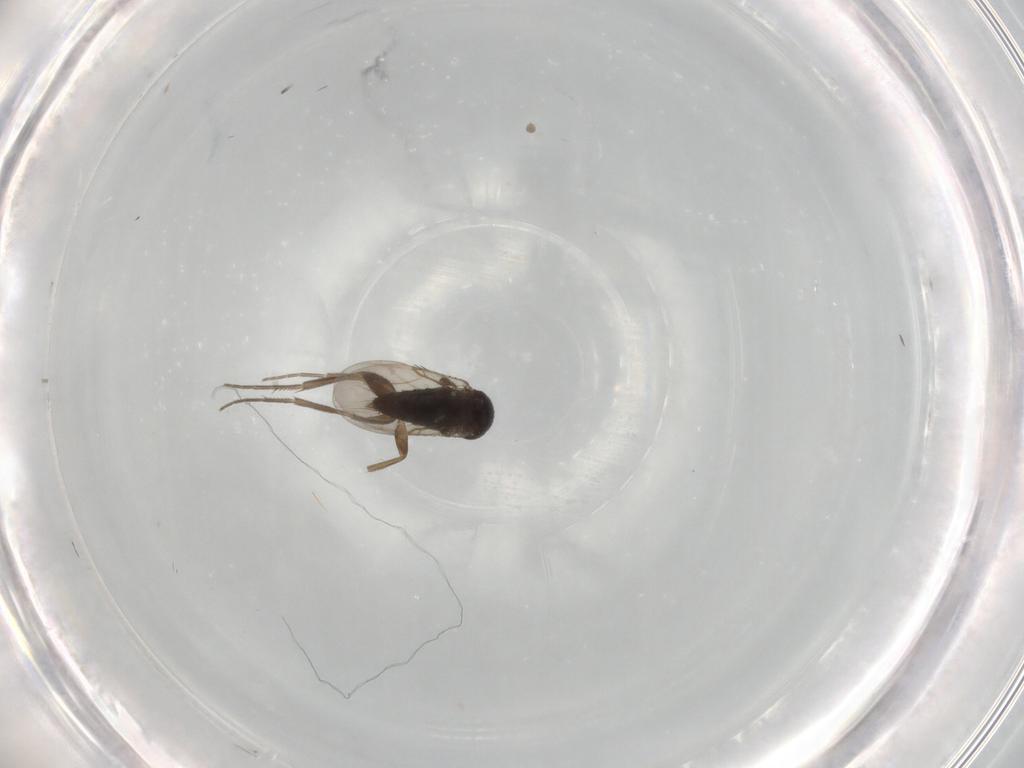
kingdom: Animalia
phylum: Arthropoda
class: Insecta
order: Diptera
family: Phoridae
